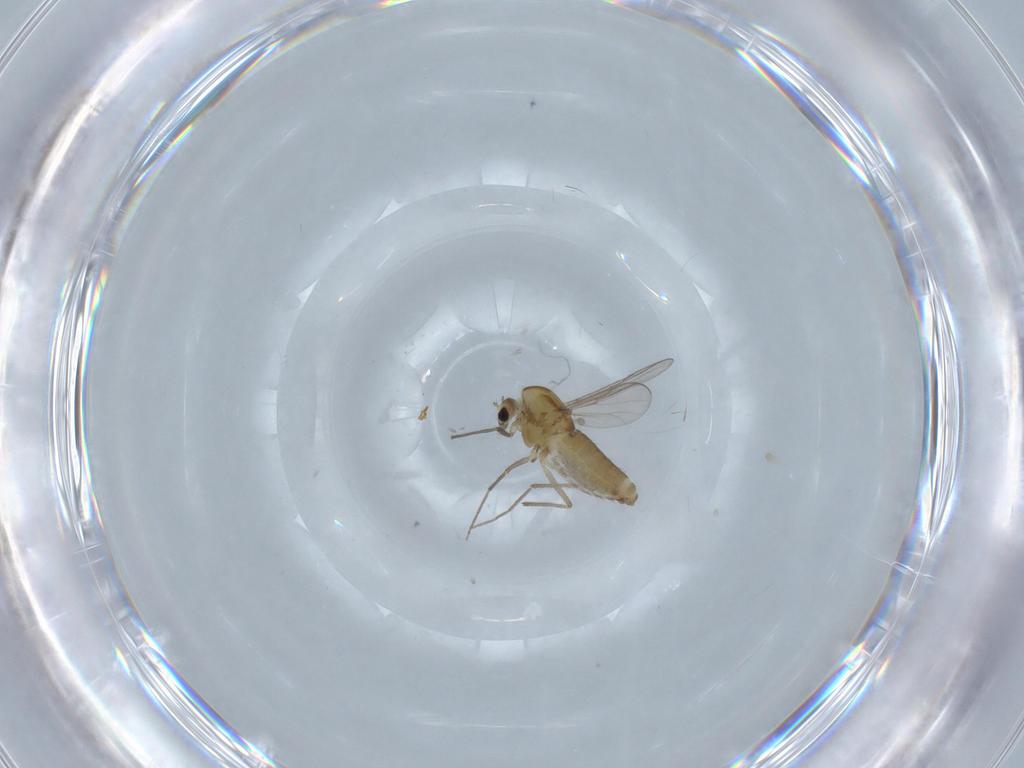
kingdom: Animalia
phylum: Arthropoda
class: Insecta
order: Diptera
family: Chironomidae
